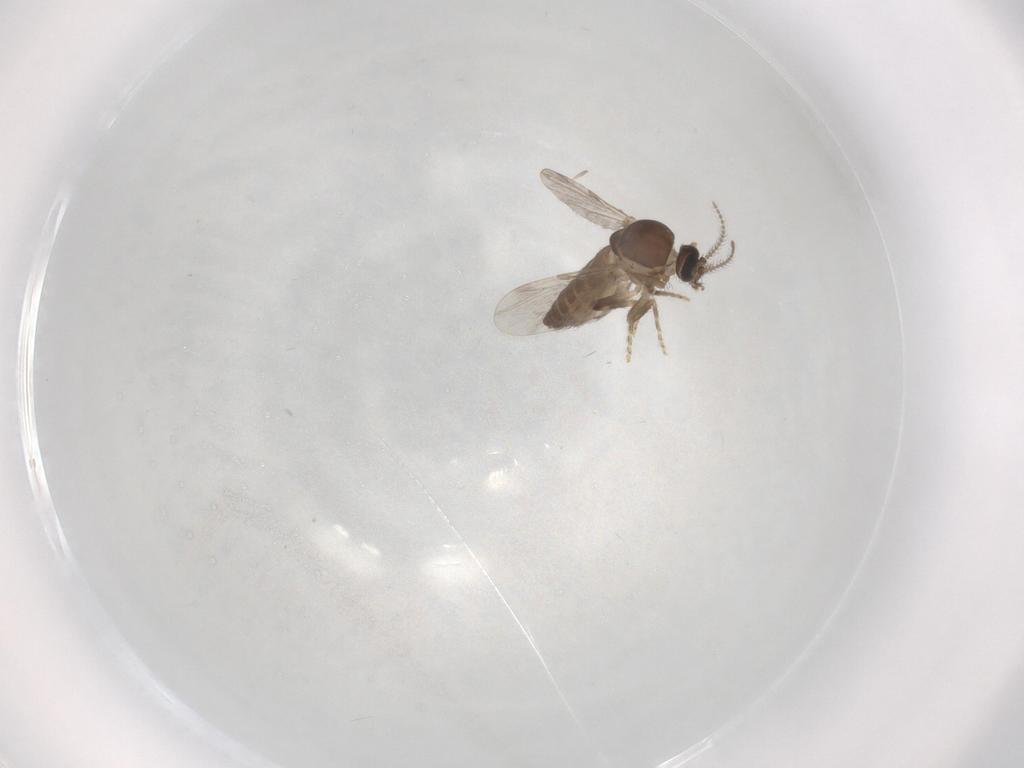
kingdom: Animalia
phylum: Arthropoda
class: Insecta
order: Diptera
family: Ceratopogonidae
